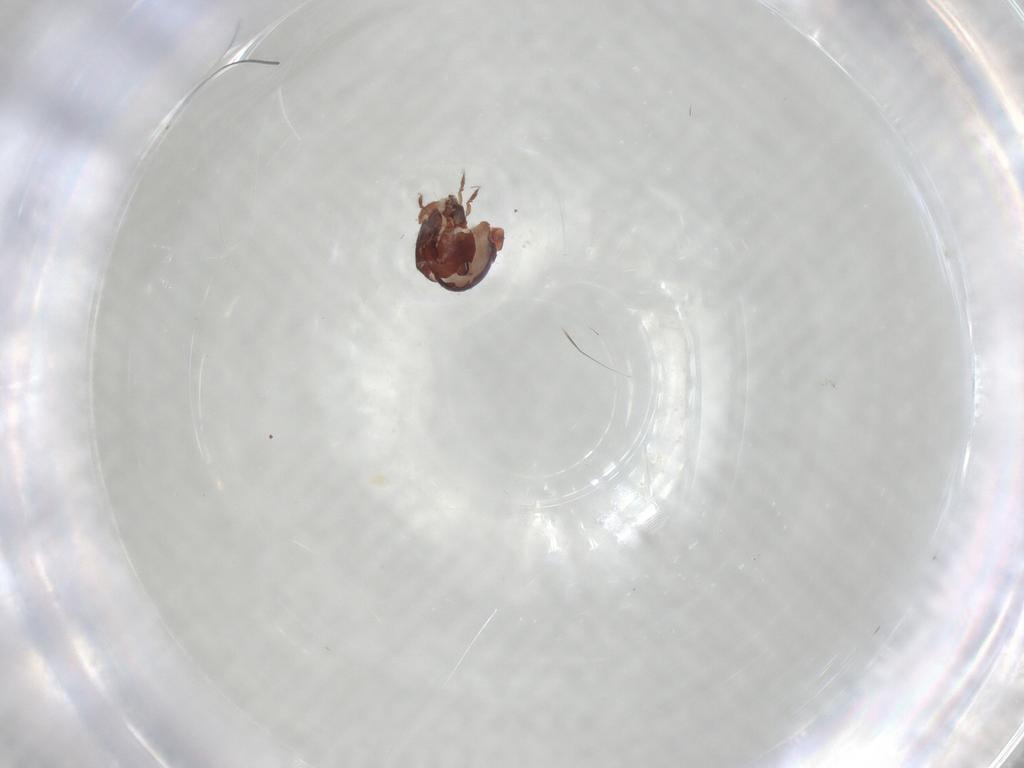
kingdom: Animalia
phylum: Arthropoda
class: Arachnida
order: Sarcoptiformes
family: Humerobatidae
